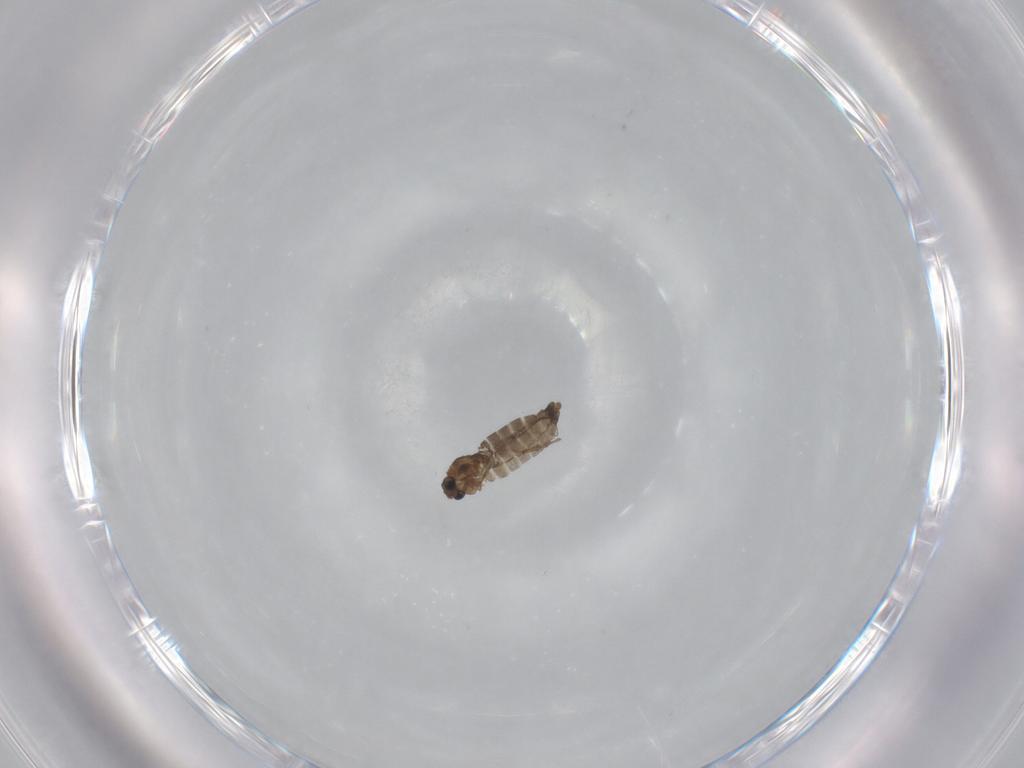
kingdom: Animalia
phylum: Arthropoda
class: Insecta
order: Diptera
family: Chironomidae
